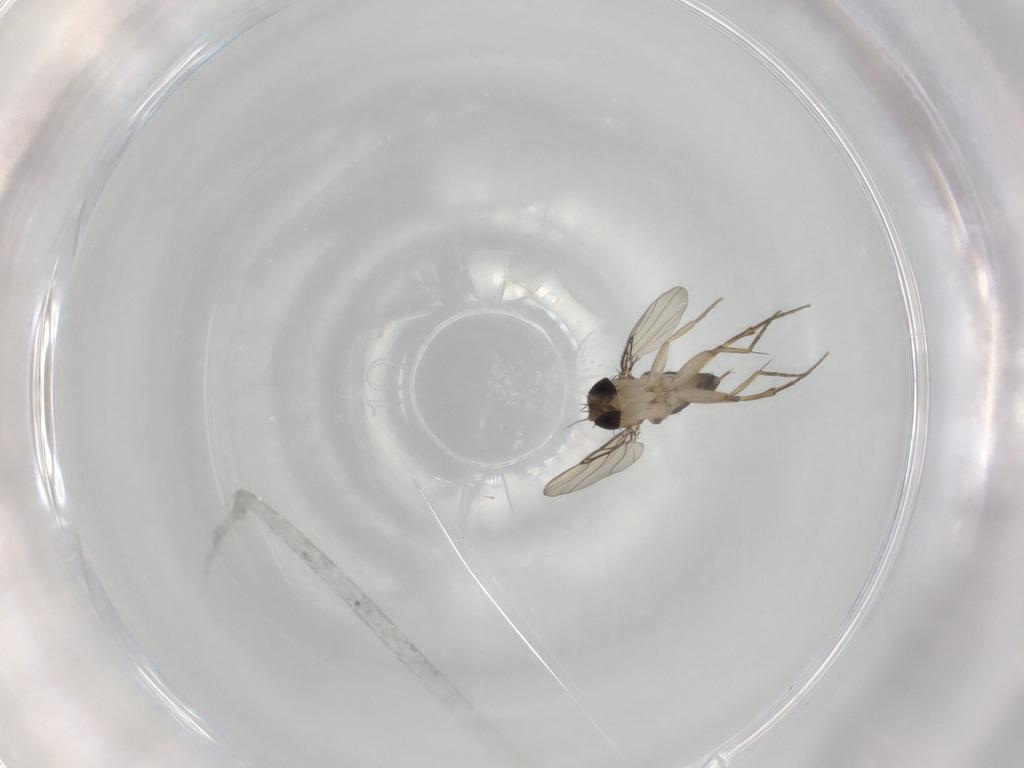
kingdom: Animalia
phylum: Arthropoda
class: Insecta
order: Diptera
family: Phoridae
